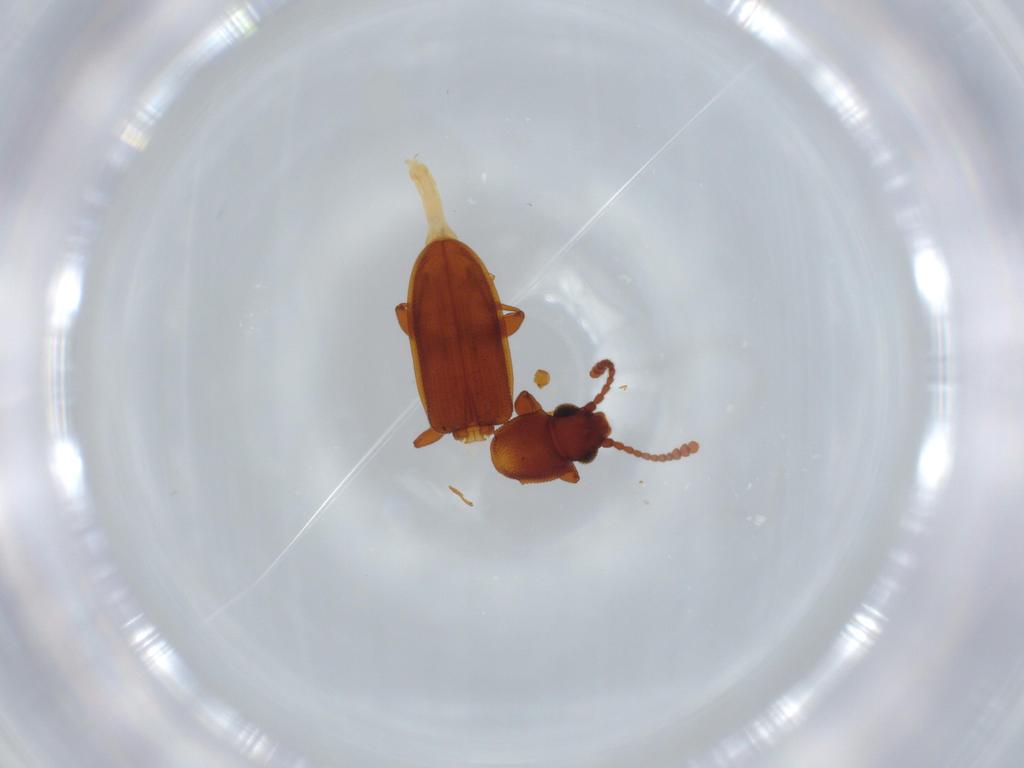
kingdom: Animalia
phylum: Arthropoda
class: Insecta
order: Coleoptera
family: Silvanidae
